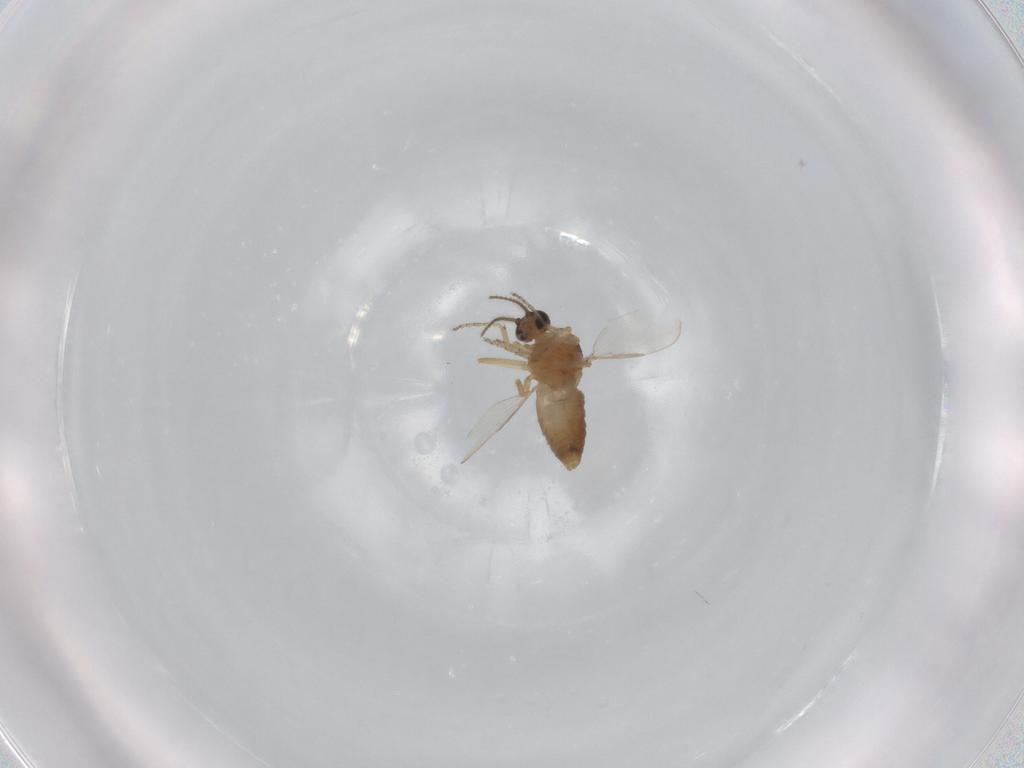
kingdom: Animalia
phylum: Arthropoda
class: Insecta
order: Diptera
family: Ceratopogonidae
